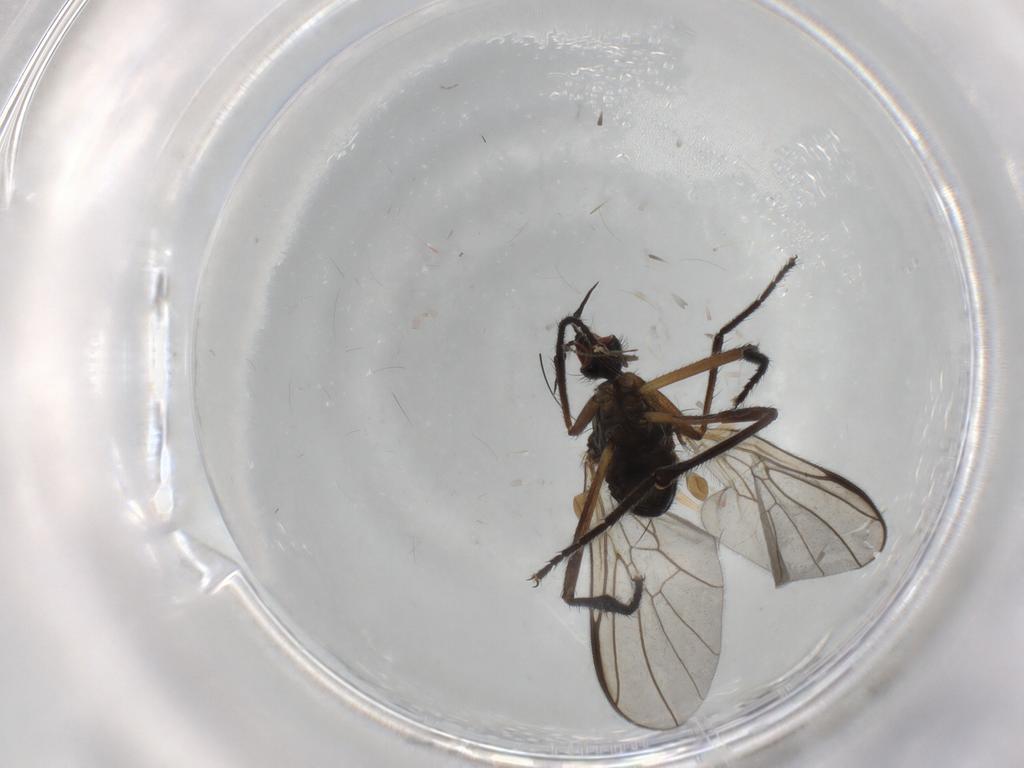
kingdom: Animalia
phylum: Arthropoda
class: Insecta
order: Diptera
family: Empididae
